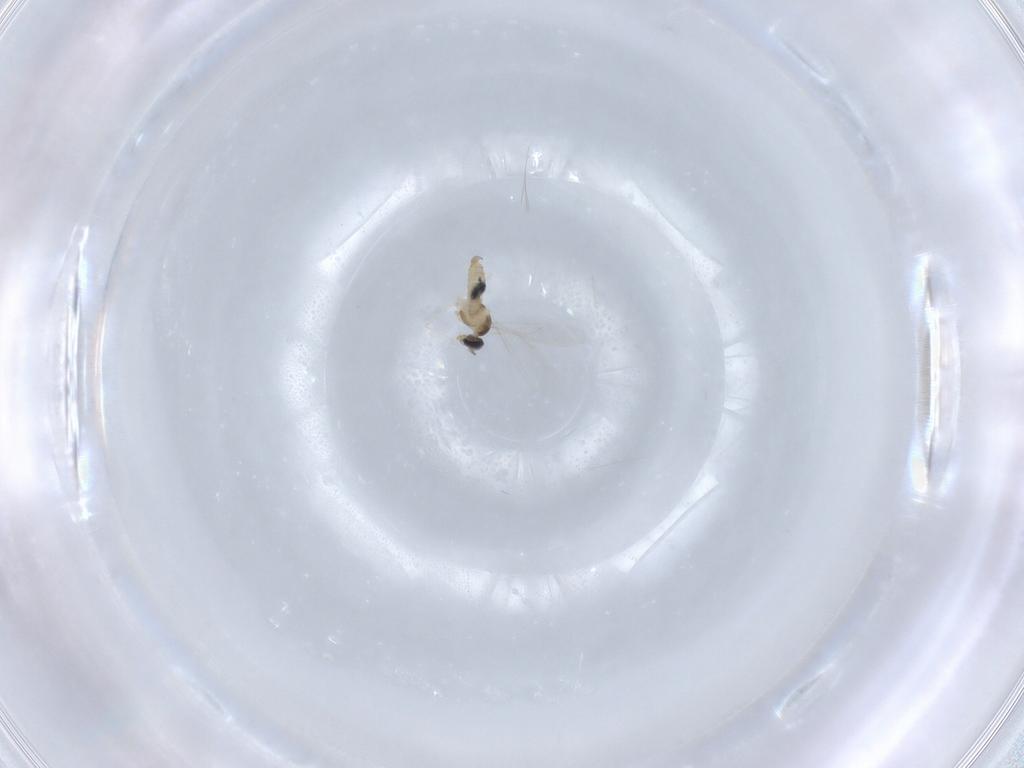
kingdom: Animalia
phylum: Arthropoda
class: Insecta
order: Diptera
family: Cecidomyiidae
